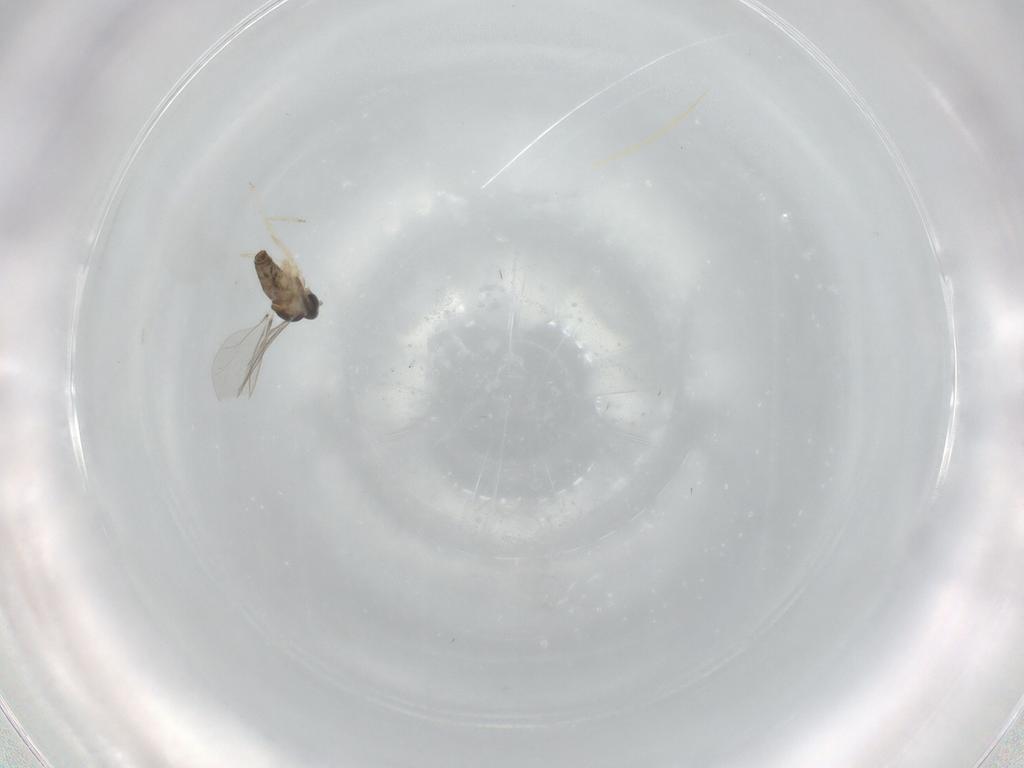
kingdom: Animalia
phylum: Arthropoda
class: Insecta
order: Diptera
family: Cecidomyiidae
